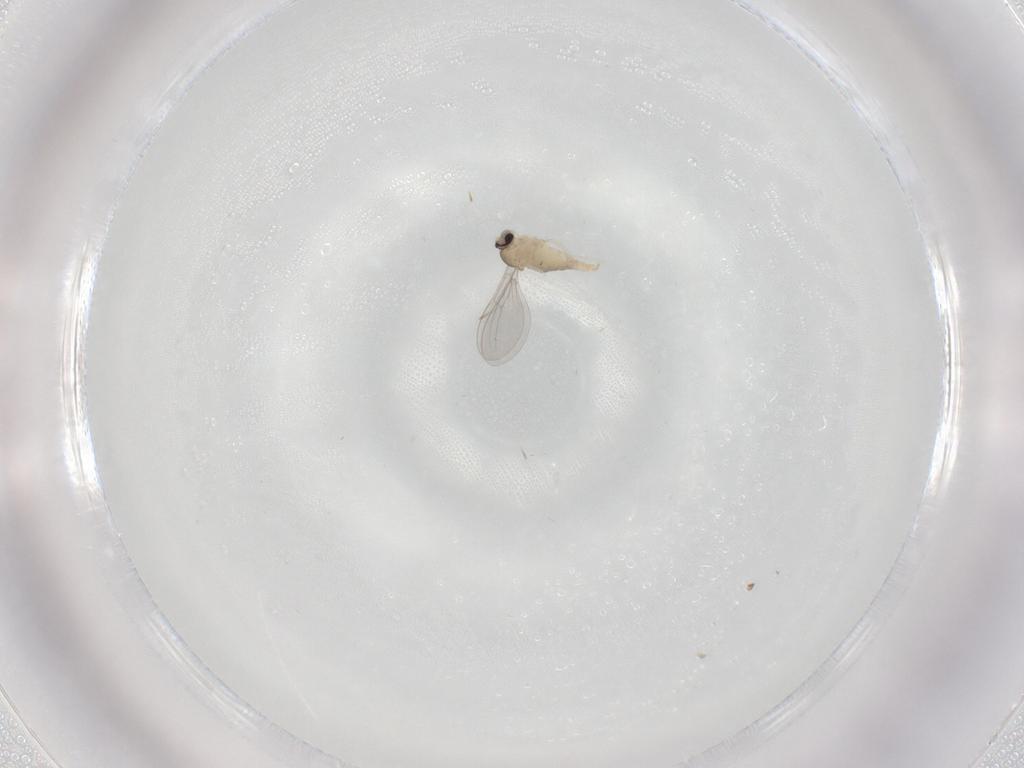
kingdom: Animalia
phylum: Arthropoda
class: Insecta
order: Diptera
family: Cecidomyiidae
